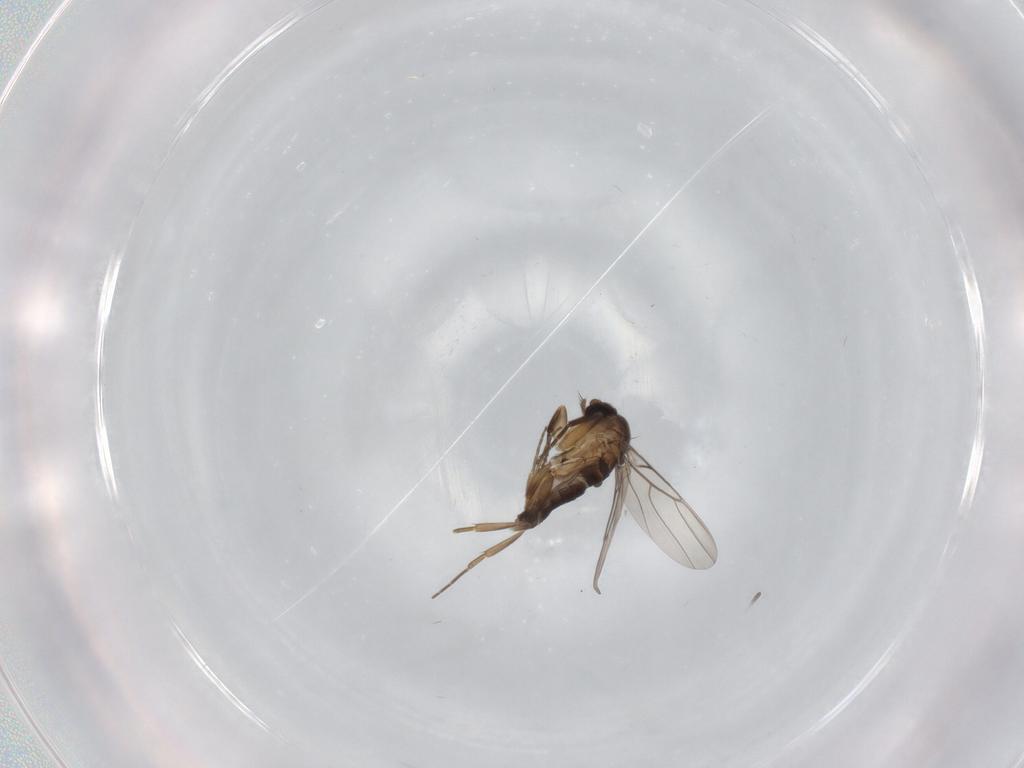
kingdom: Animalia
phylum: Arthropoda
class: Insecta
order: Diptera
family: Phoridae
